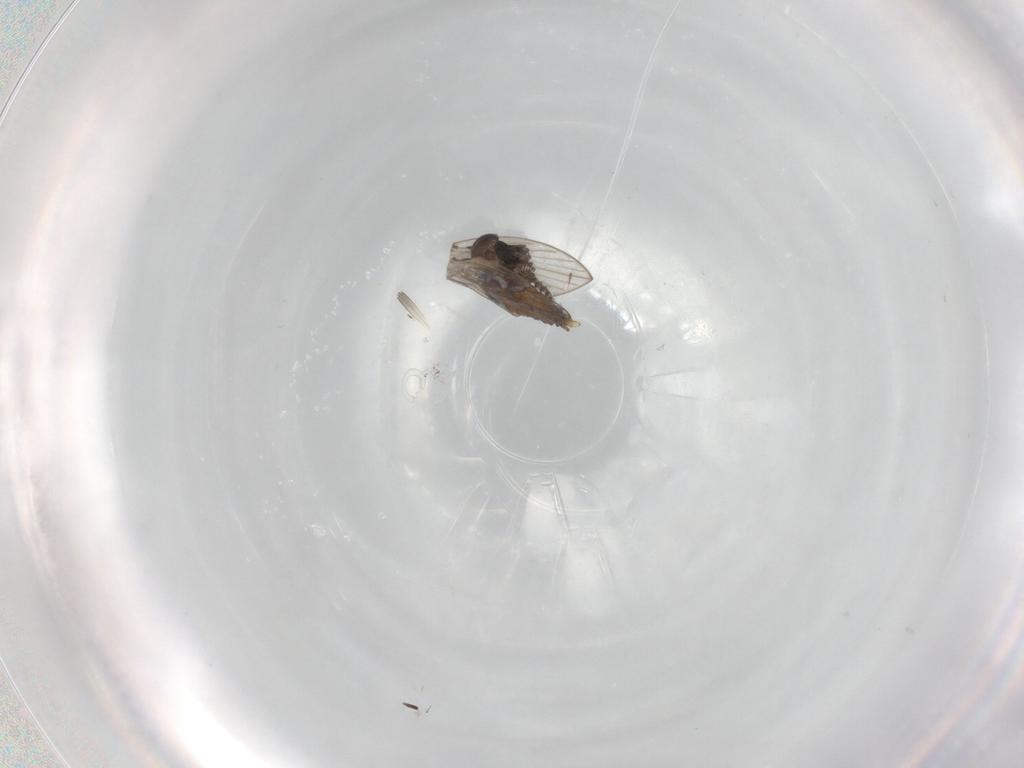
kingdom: Animalia
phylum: Arthropoda
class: Insecta
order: Diptera
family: Psychodidae
